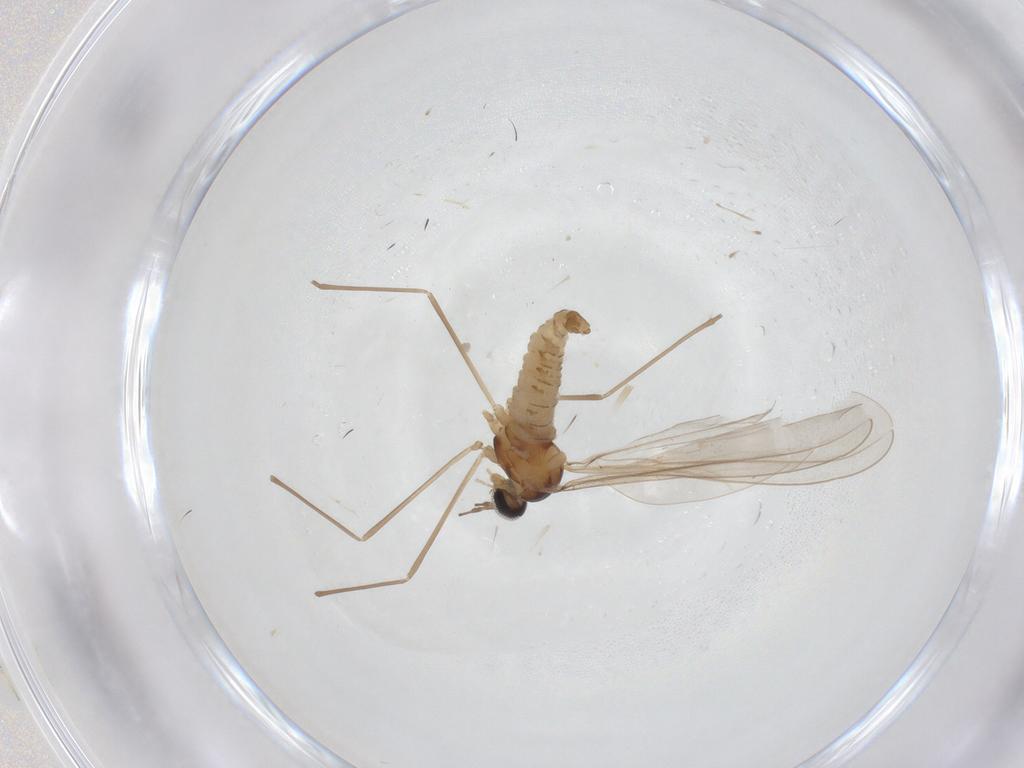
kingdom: Animalia
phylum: Arthropoda
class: Insecta
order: Diptera
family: Cecidomyiidae
